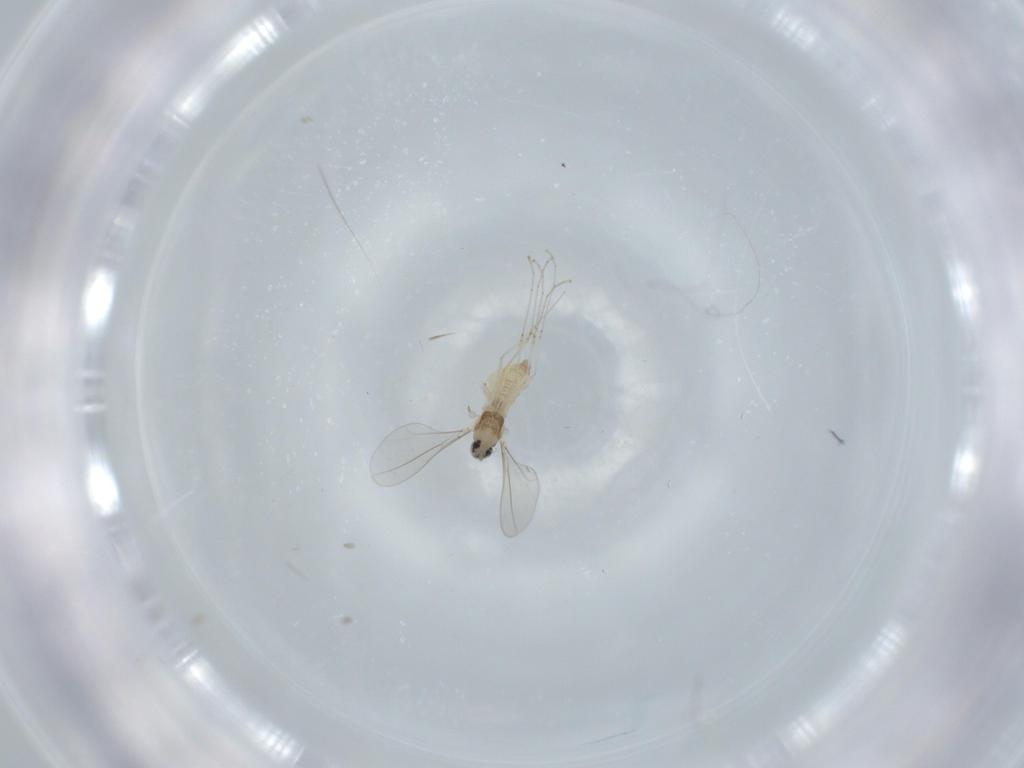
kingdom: Animalia
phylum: Arthropoda
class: Insecta
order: Diptera
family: Cecidomyiidae
